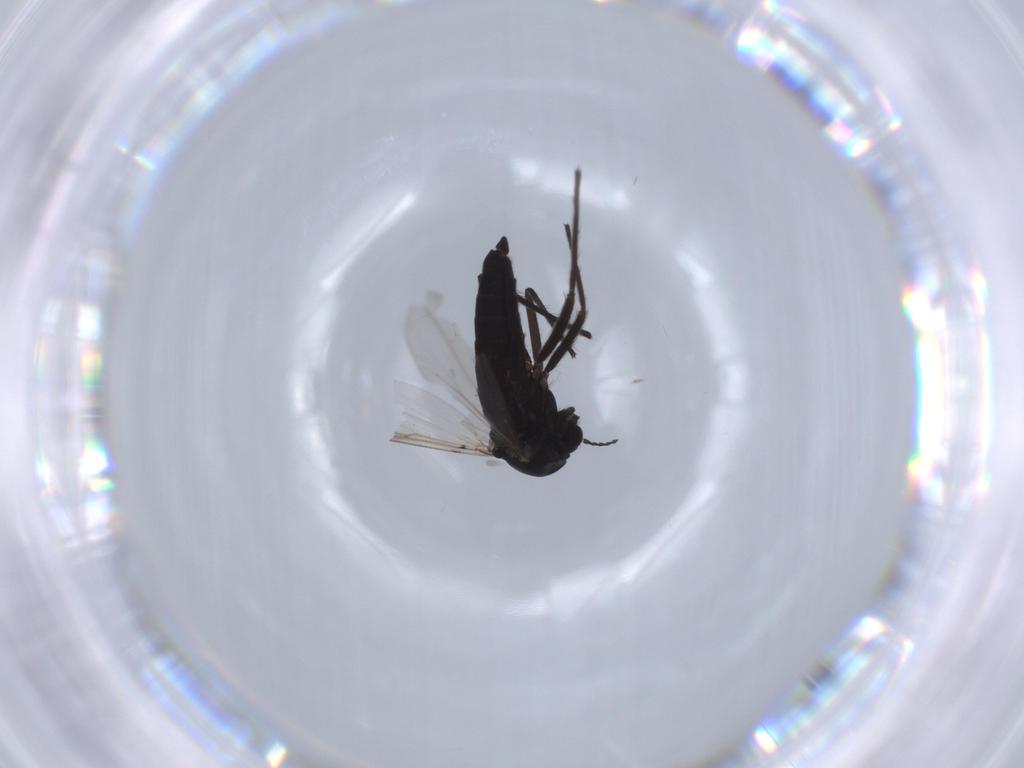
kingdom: Animalia
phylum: Arthropoda
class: Insecta
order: Diptera
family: Chironomidae
